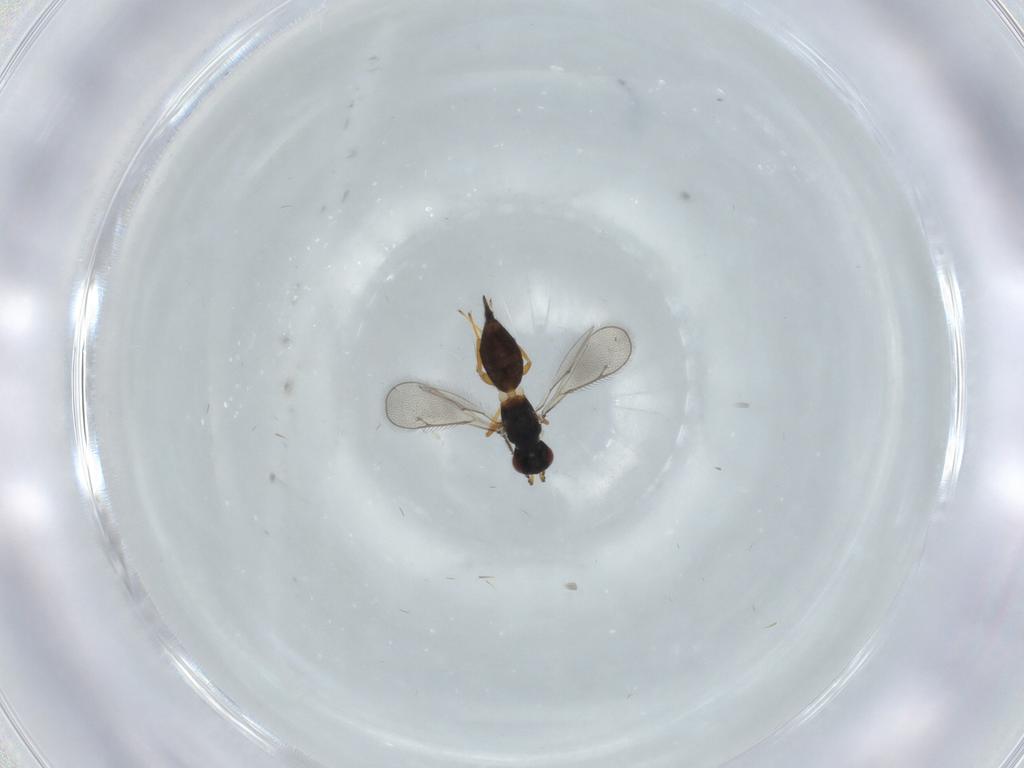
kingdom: Animalia
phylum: Arthropoda
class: Insecta
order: Hymenoptera
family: Eulophidae
